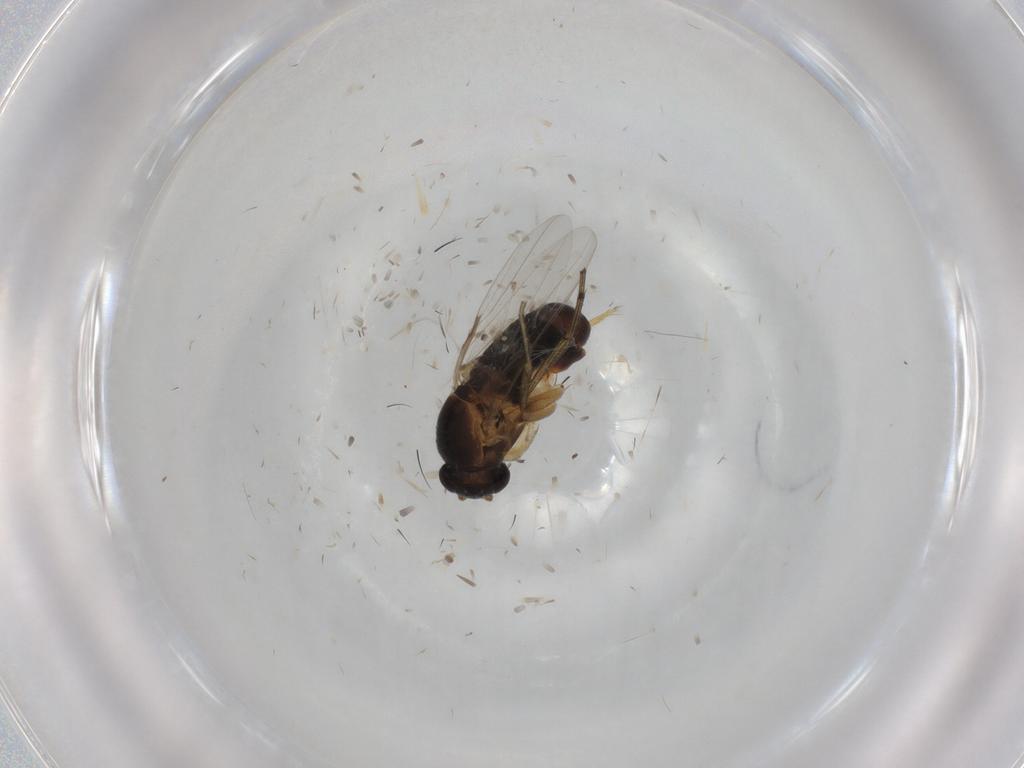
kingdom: Animalia
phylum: Arthropoda
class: Insecta
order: Diptera
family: Phoridae
